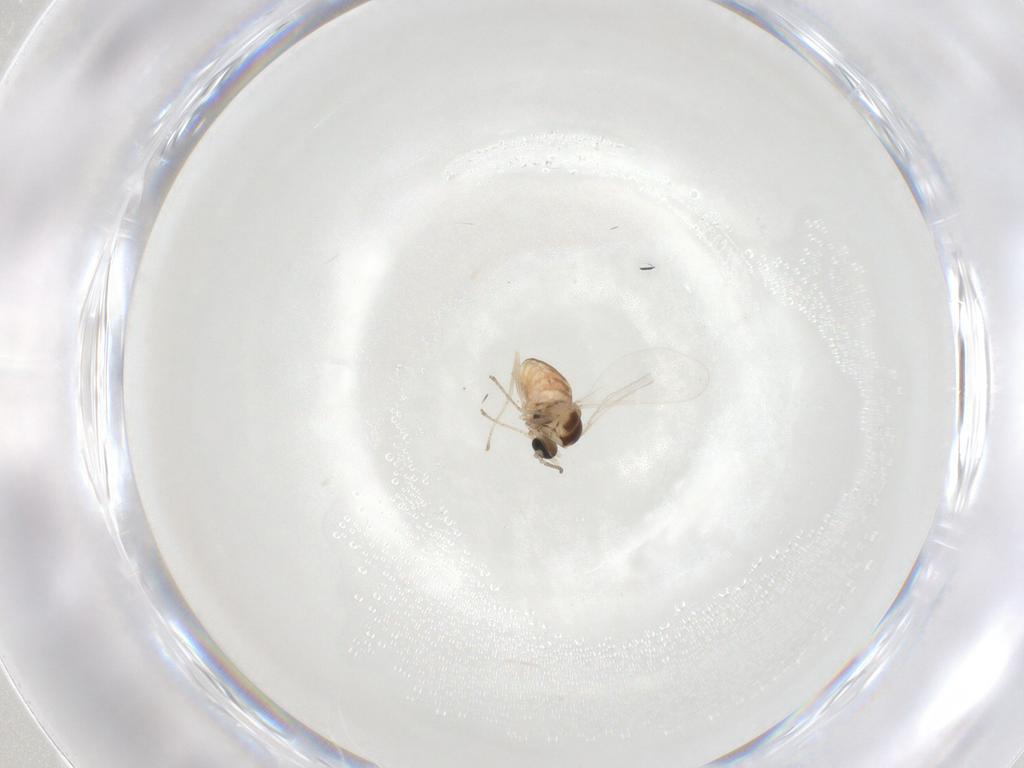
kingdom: Animalia
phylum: Arthropoda
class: Insecta
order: Diptera
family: Cecidomyiidae
